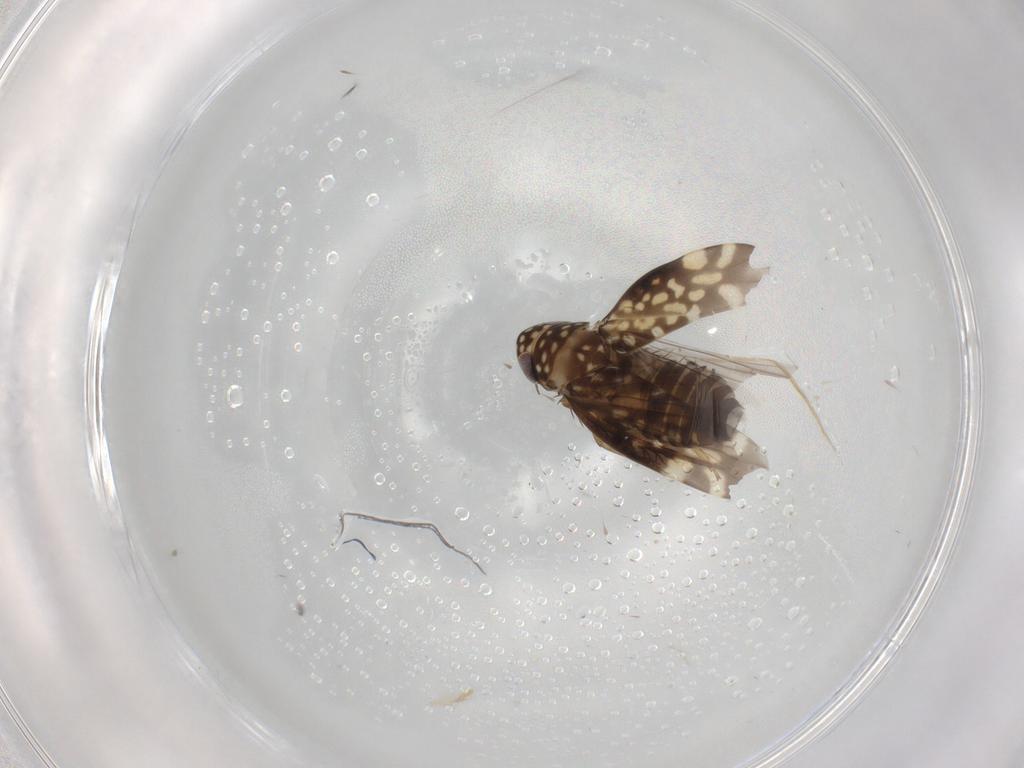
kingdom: Animalia
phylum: Arthropoda
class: Insecta
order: Hemiptera
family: Cicadellidae
